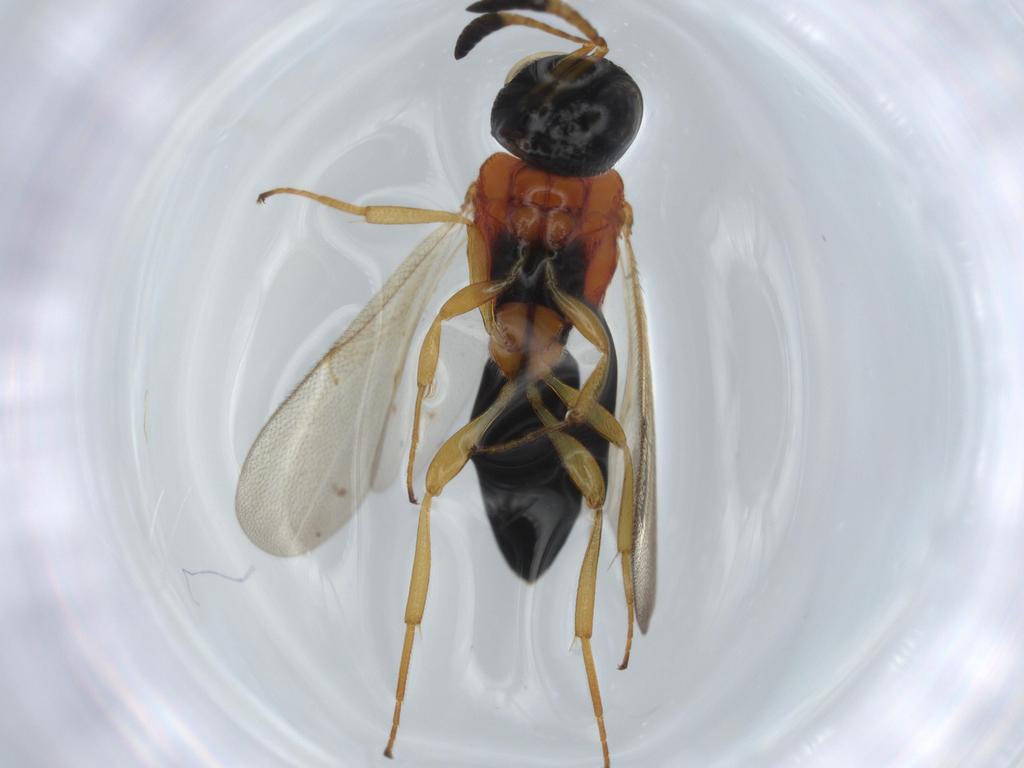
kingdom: Animalia
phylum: Arthropoda
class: Insecta
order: Hymenoptera
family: Scelionidae
